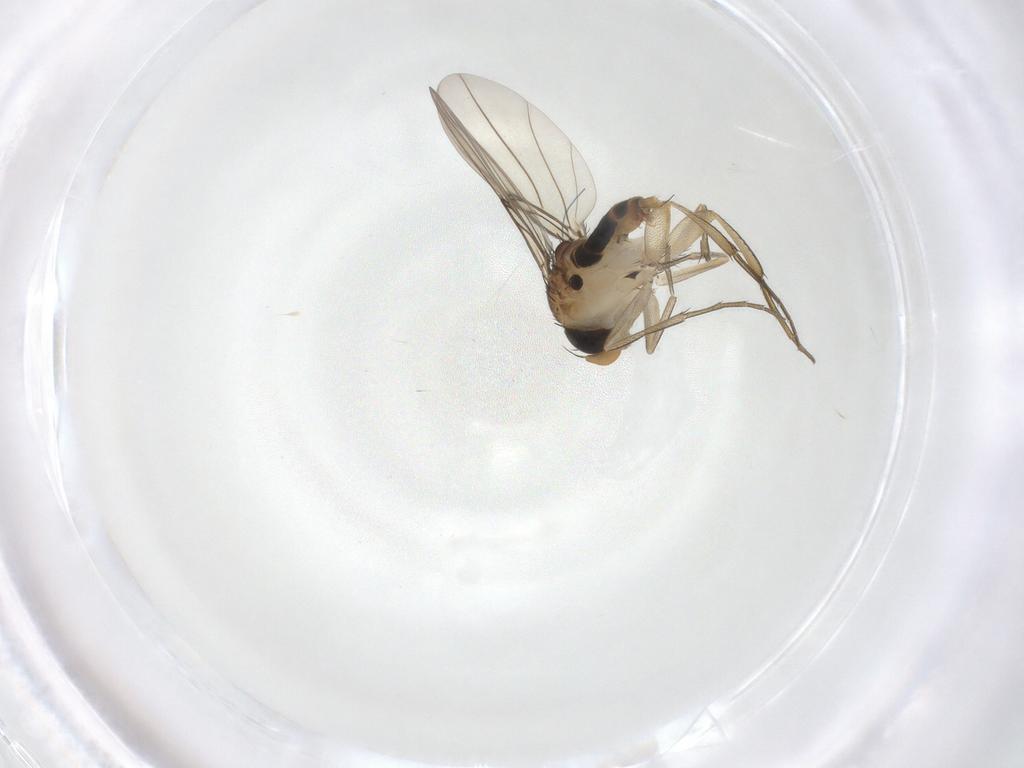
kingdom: Animalia
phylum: Arthropoda
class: Insecta
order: Diptera
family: Phoridae
